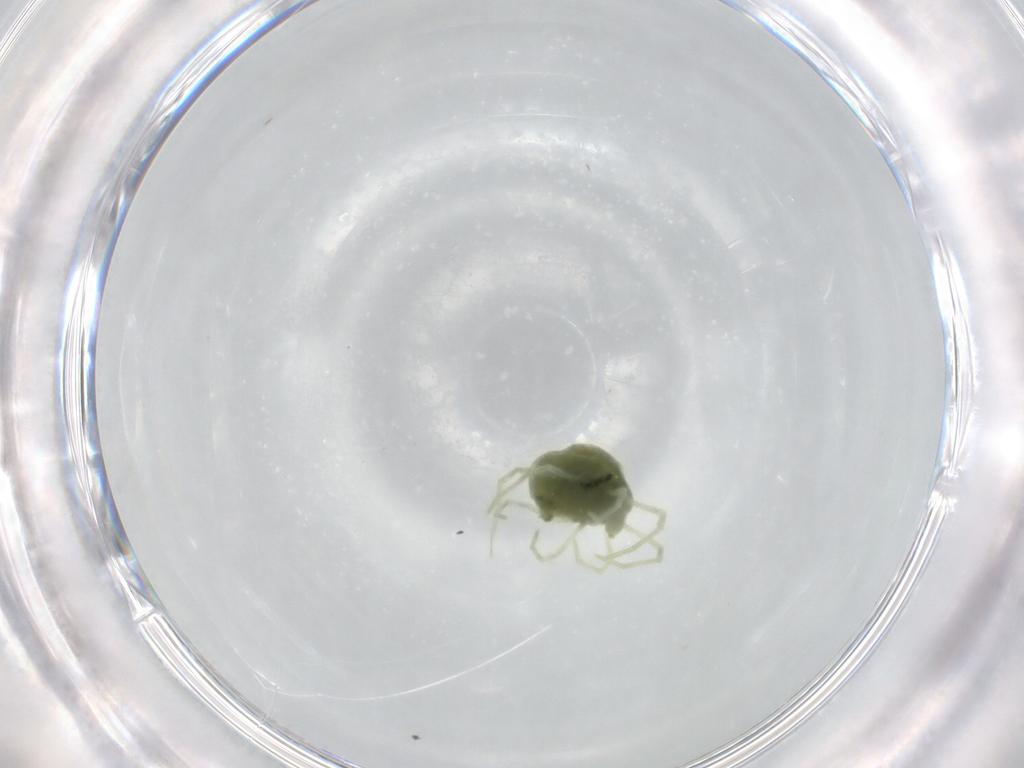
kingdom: Animalia
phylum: Arthropoda
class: Arachnida
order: Trombidiformes
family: Penthaleidae
